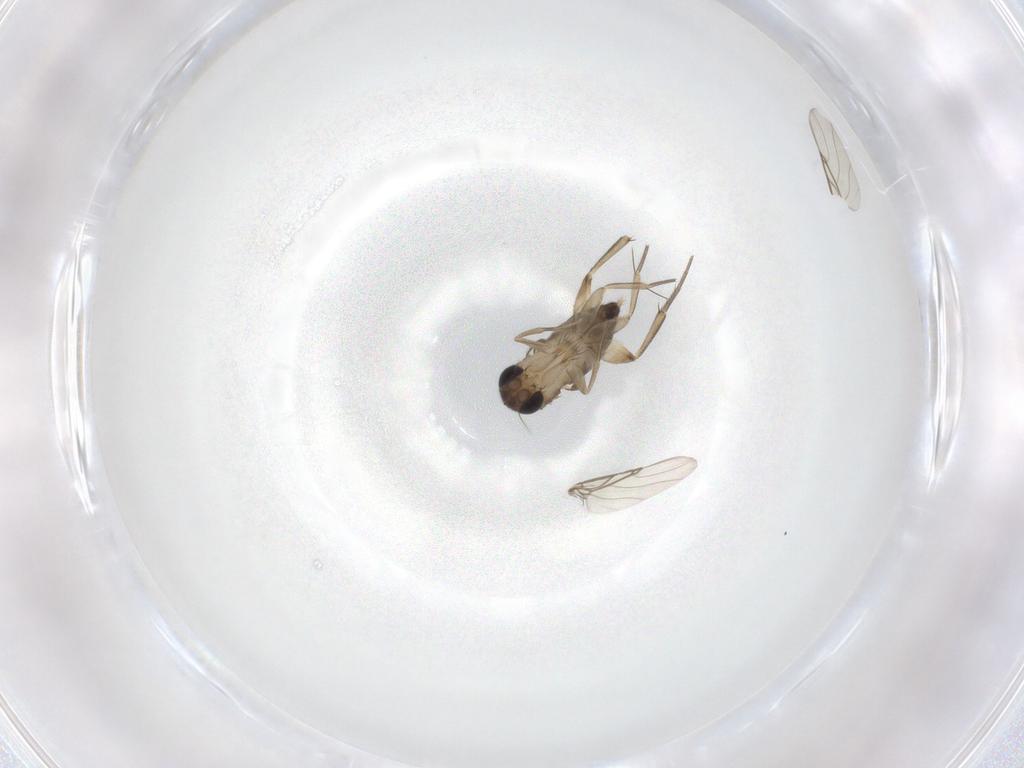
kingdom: Animalia
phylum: Arthropoda
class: Insecta
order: Diptera
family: Phoridae
